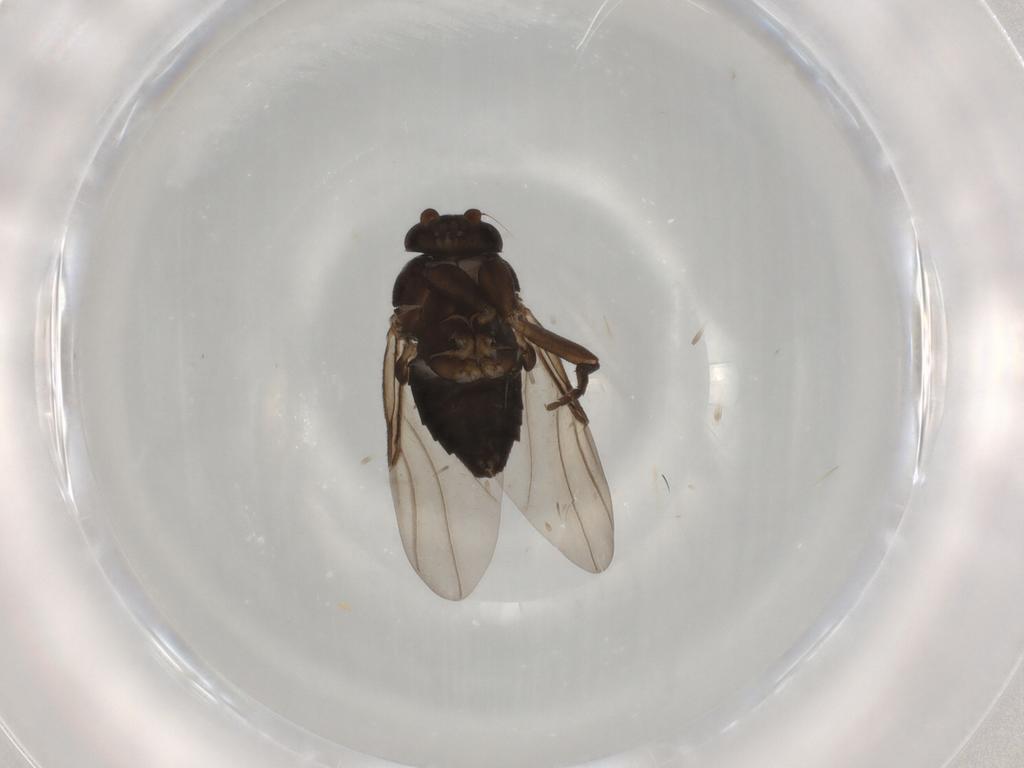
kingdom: Animalia
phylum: Arthropoda
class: Insecta
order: Diptera
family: Phoridae
